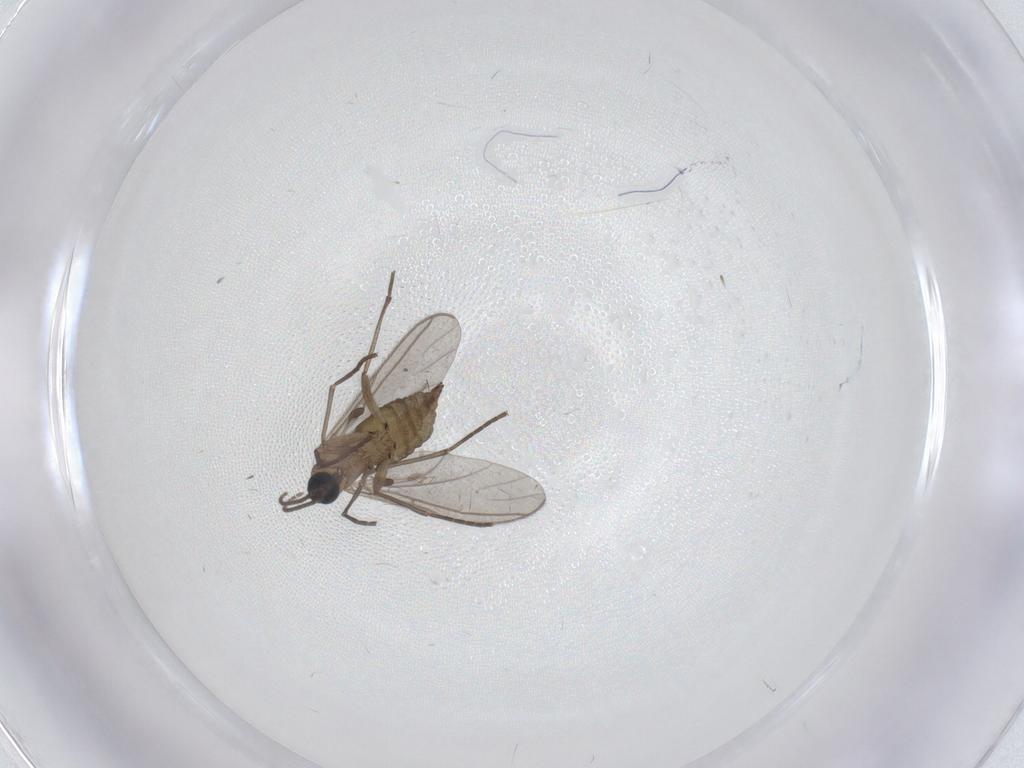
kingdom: Animalia
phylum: Arthropoda
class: Insecta
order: Diptera
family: Sciaridae
